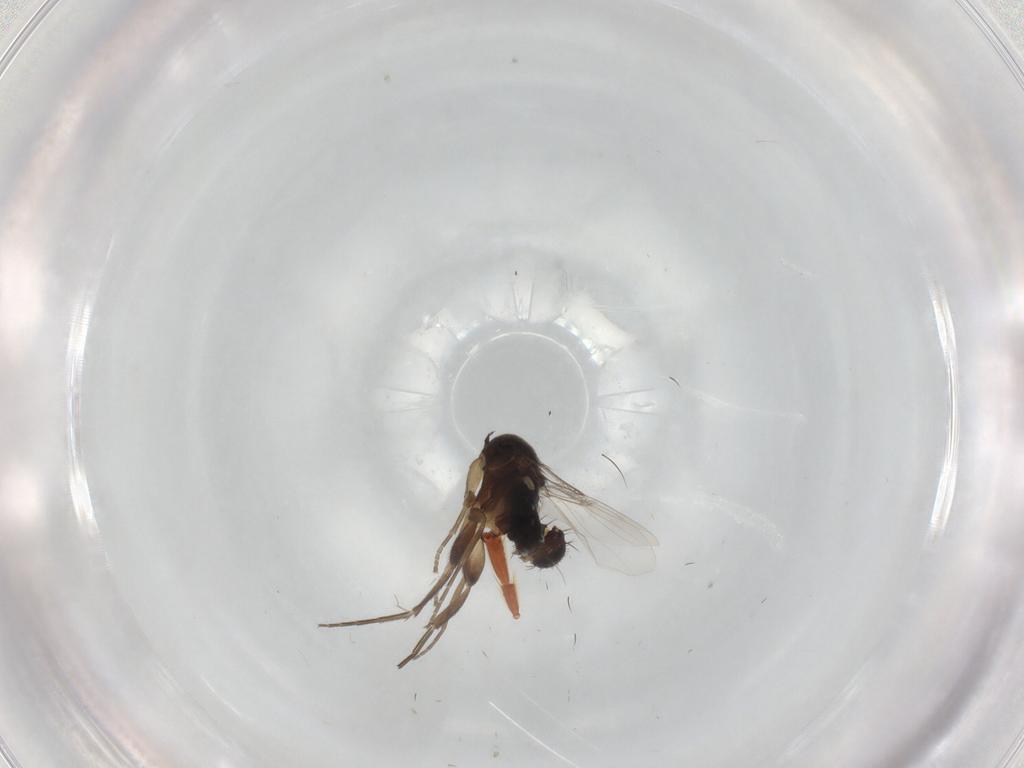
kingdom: Animalia
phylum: Arthropoda
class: Insecta
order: Diptera
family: Phoridae
